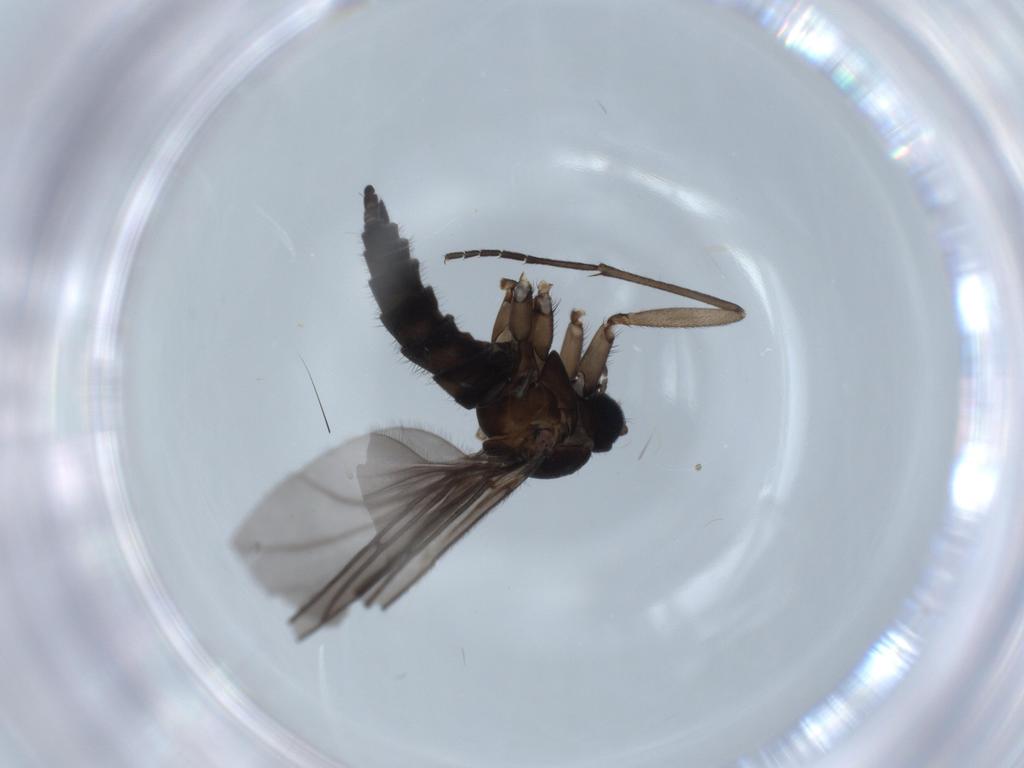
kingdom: Animalia
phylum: Arthropoda
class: Insecta
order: Diptera
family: Sciaridae
